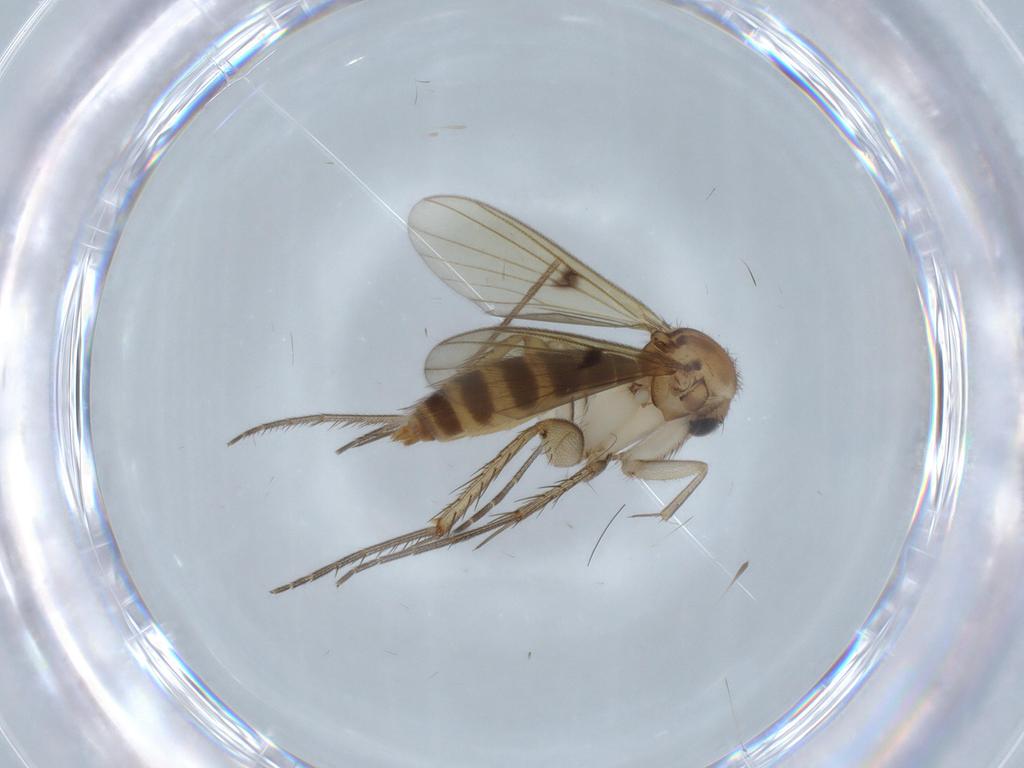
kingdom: Animalia
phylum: Arthropoda
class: Insecta
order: Diptera
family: Cecidomyiidae
